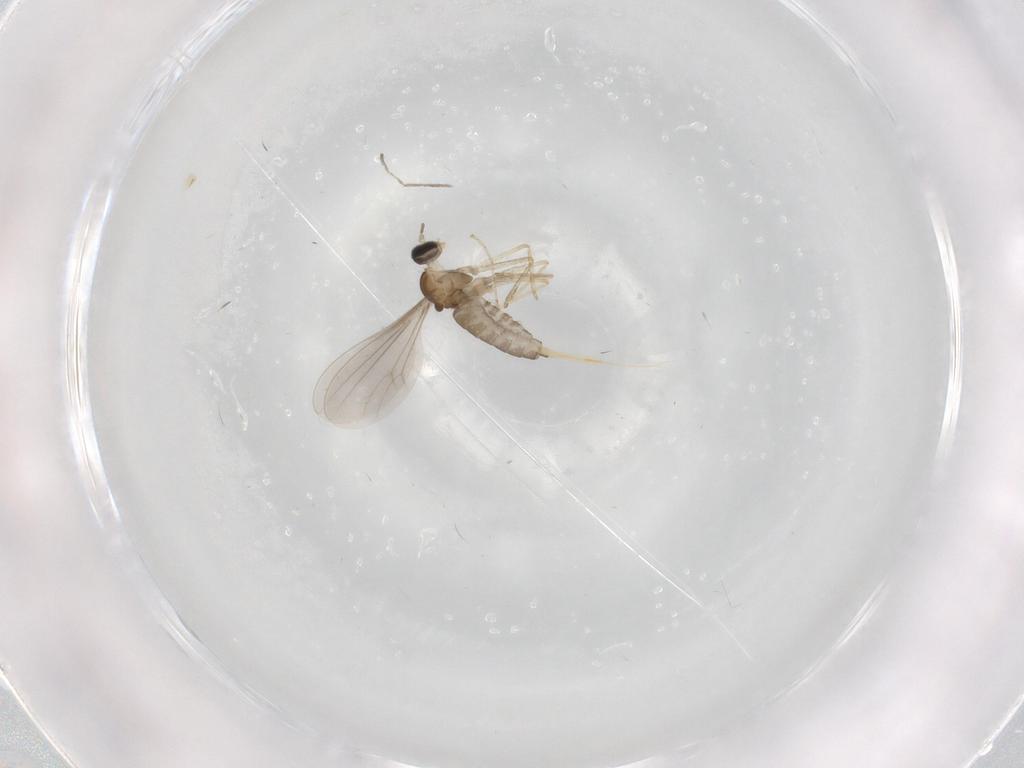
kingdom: Animalia
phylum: Arthropoda
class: Insecta
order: Diptera
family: Cecidomyiidae
